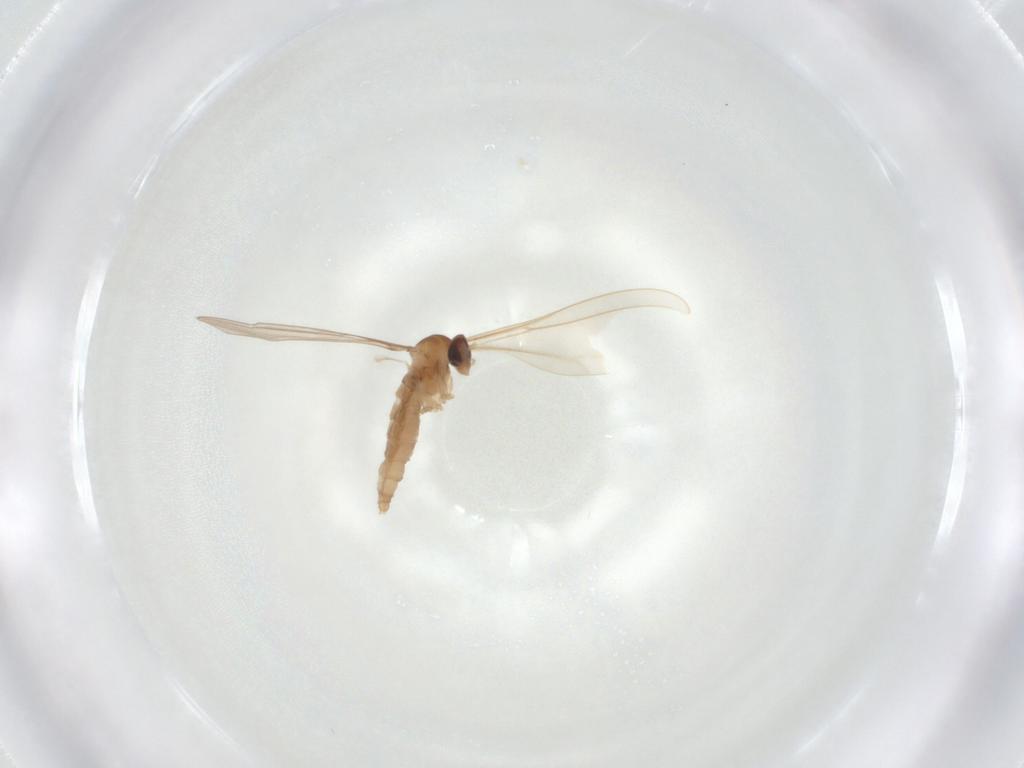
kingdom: Animalia
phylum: Arthropoda
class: Insecta
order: Diptera
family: Cecidomyiidae
